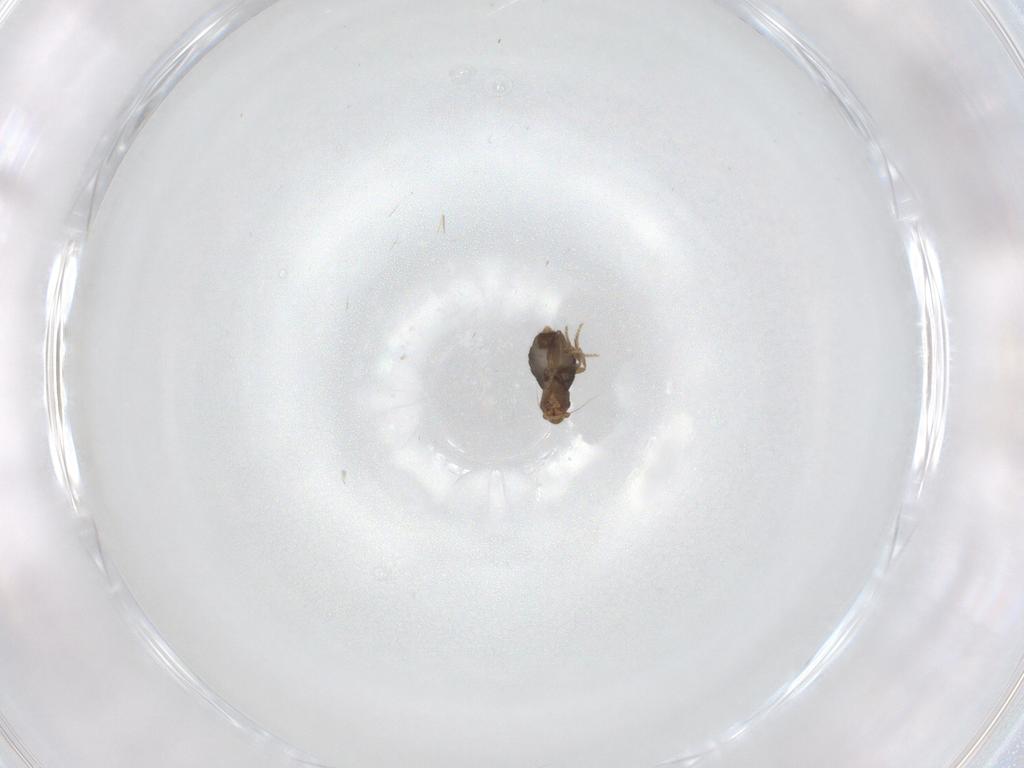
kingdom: Animalia
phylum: Arthropoda
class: Insecta
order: Diptera
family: Phoridae
